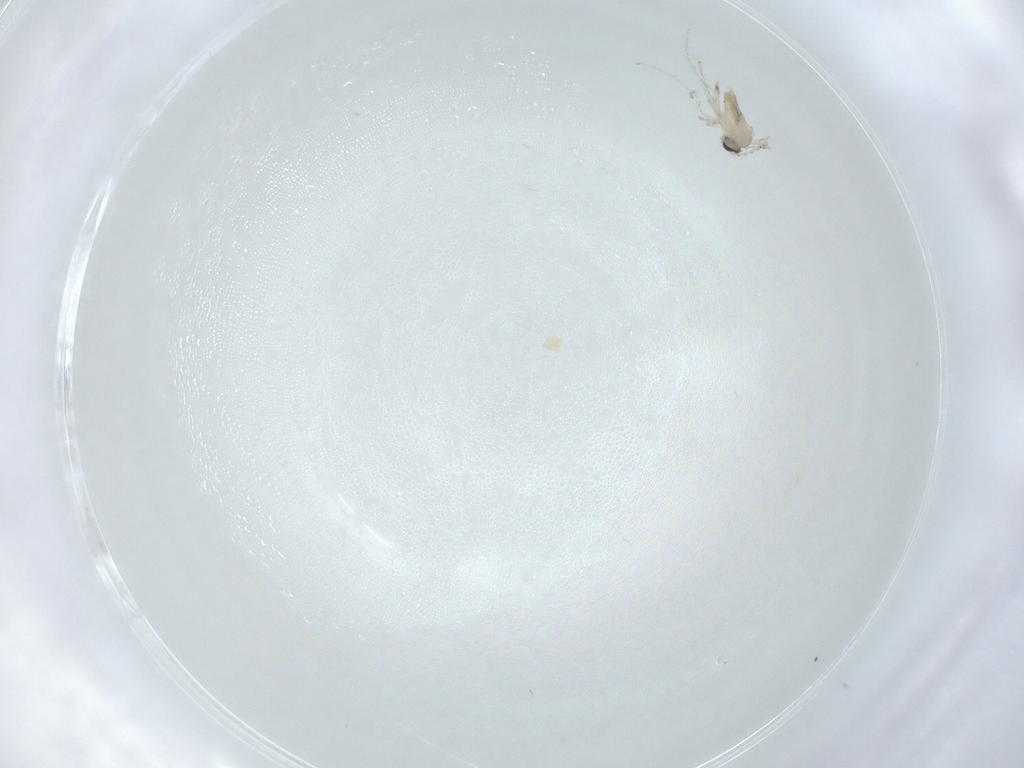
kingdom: Animalia
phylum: Arthropoda
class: Insecta
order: Diptera
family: Cecidomyiidae
